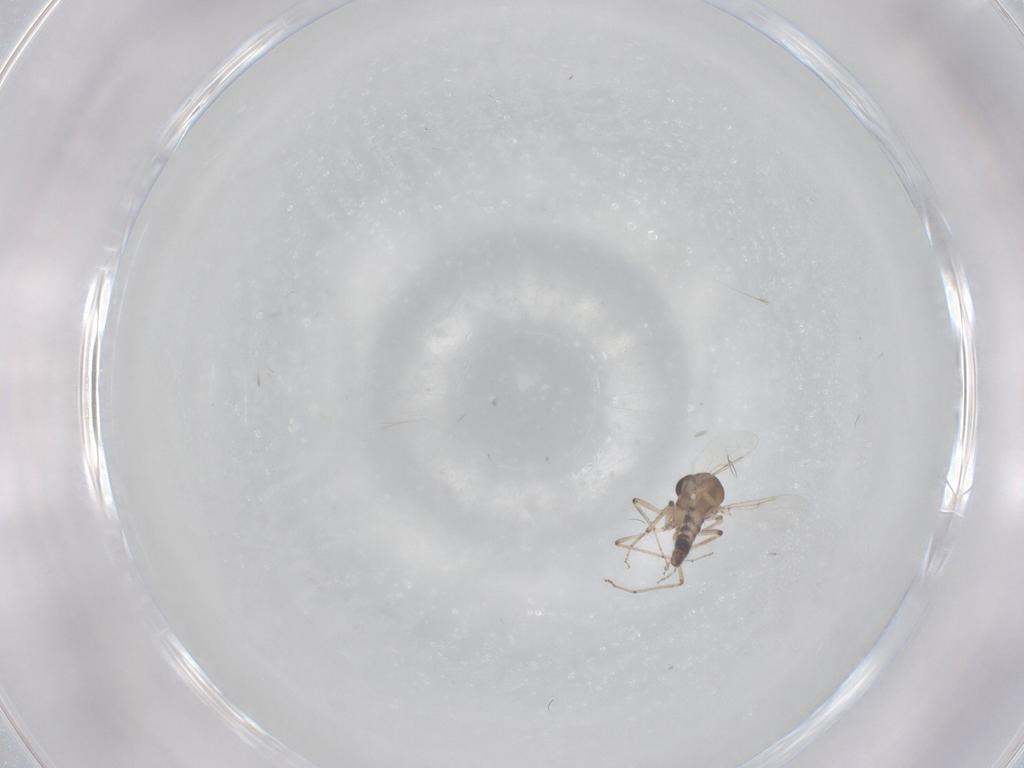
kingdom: Animalia
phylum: Arthropoda
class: Insecta
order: Diptera
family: Ceratopogonidae
